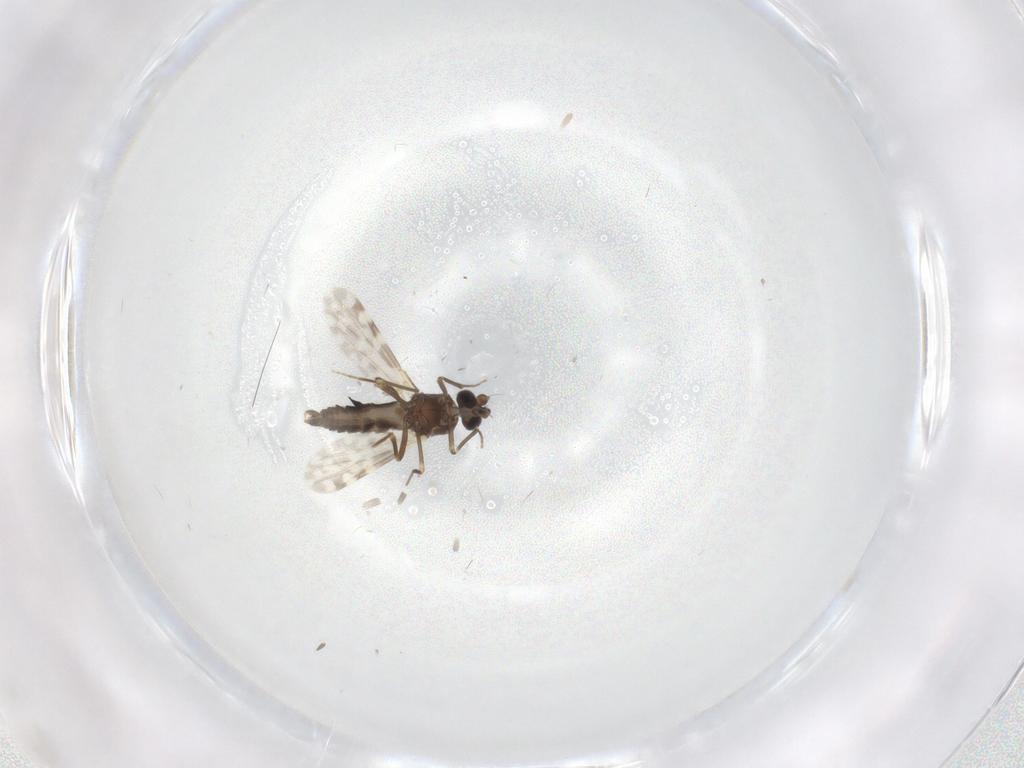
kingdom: Animalia
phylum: Arthropoda
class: Insecta
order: Diptera
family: Ceratopogonidae
